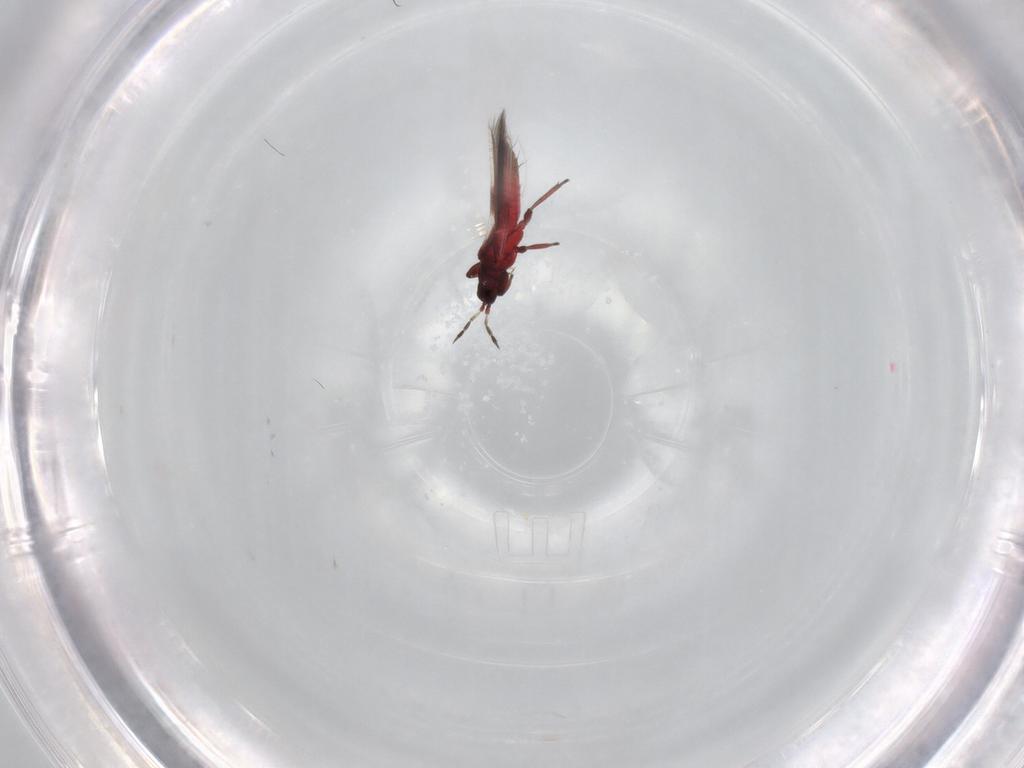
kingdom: Animalia
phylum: Arthropoda
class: Insecta
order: Thysanoptera
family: Aeolothripidae
